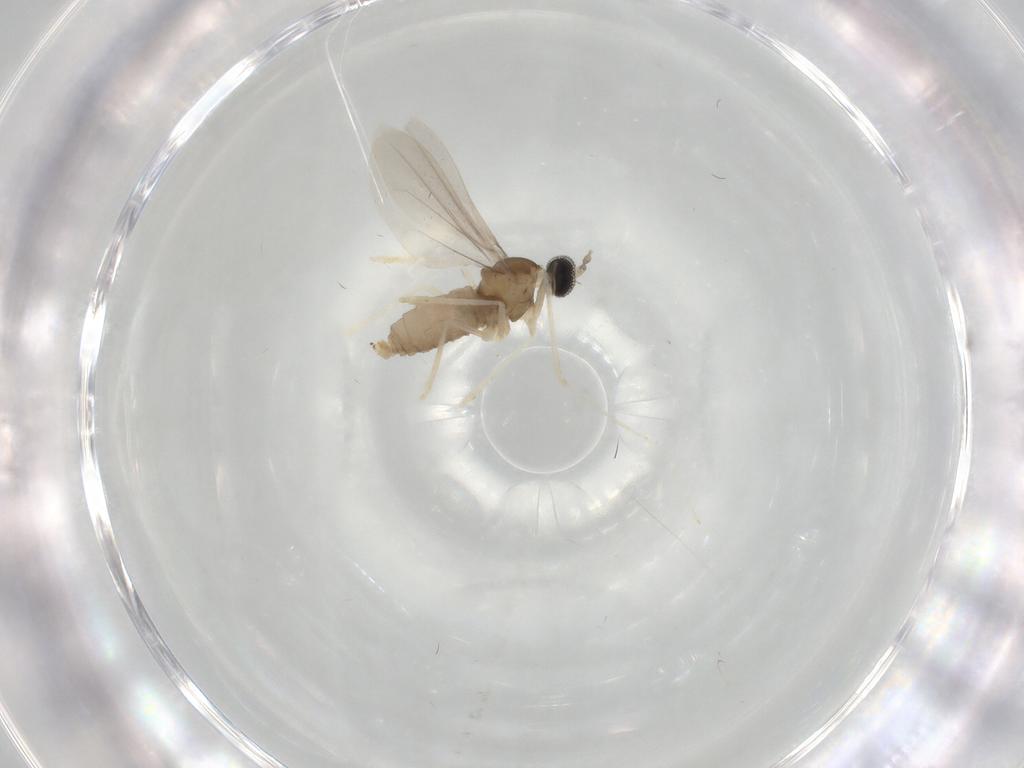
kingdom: Animalia
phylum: Arthropoda
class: Insecta
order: Diptera
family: Cecidomyiidae
